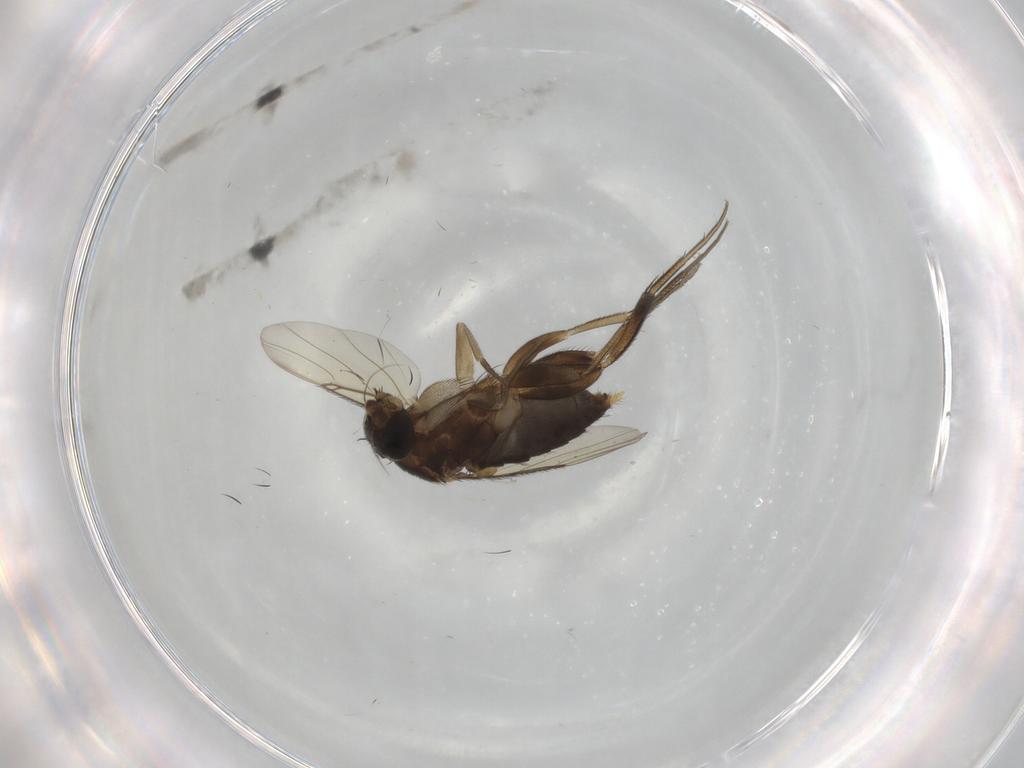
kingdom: Animalia
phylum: Arthropoda
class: Insecta
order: Diptera
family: Phoridae
